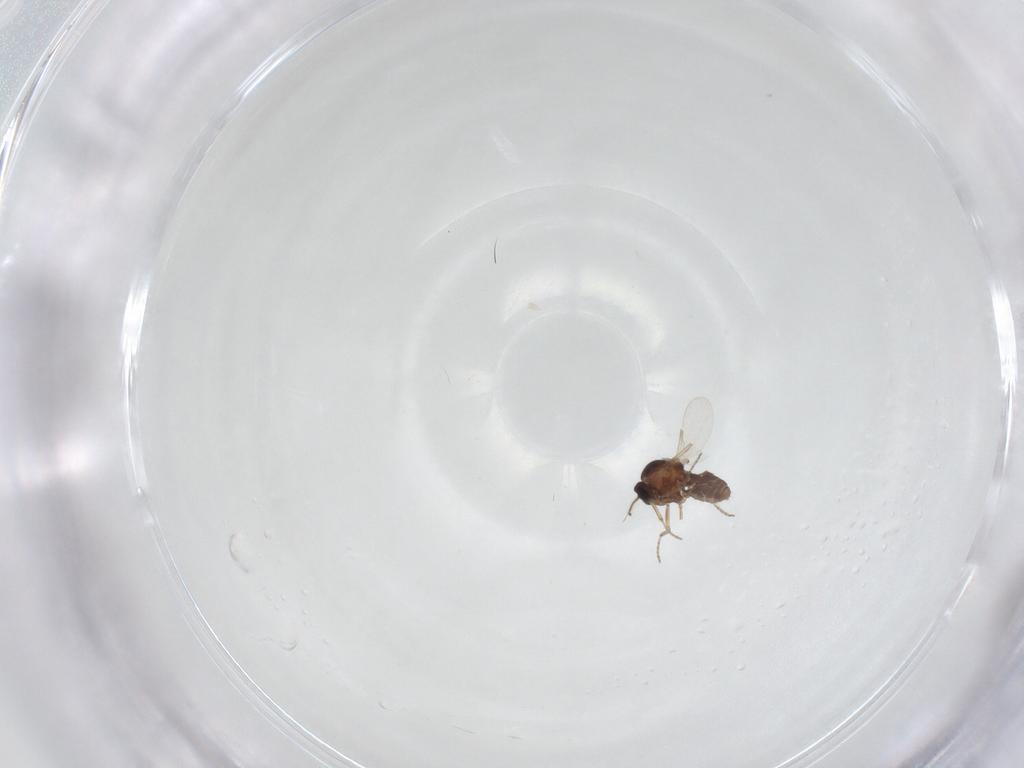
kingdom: Animalia
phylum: Arthropoda
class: Insecta
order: Diptera
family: Ceratopogonidae
